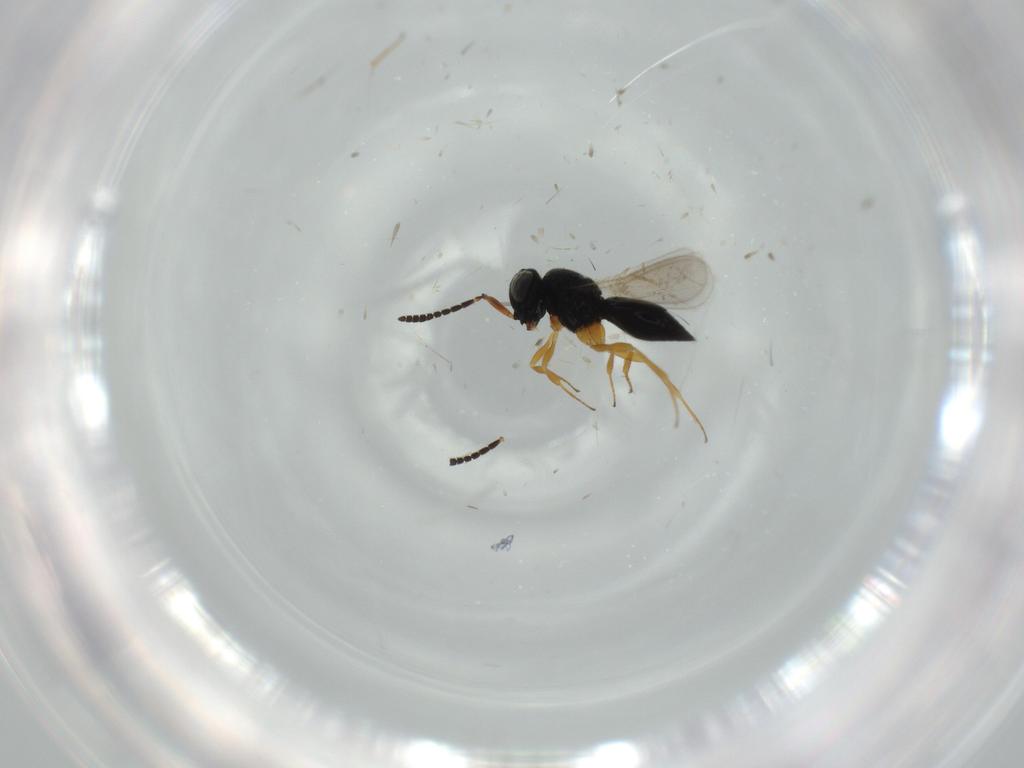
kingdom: Animalia
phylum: Arthropoda
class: Insecta
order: Hymenoptera
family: Scelionidae
